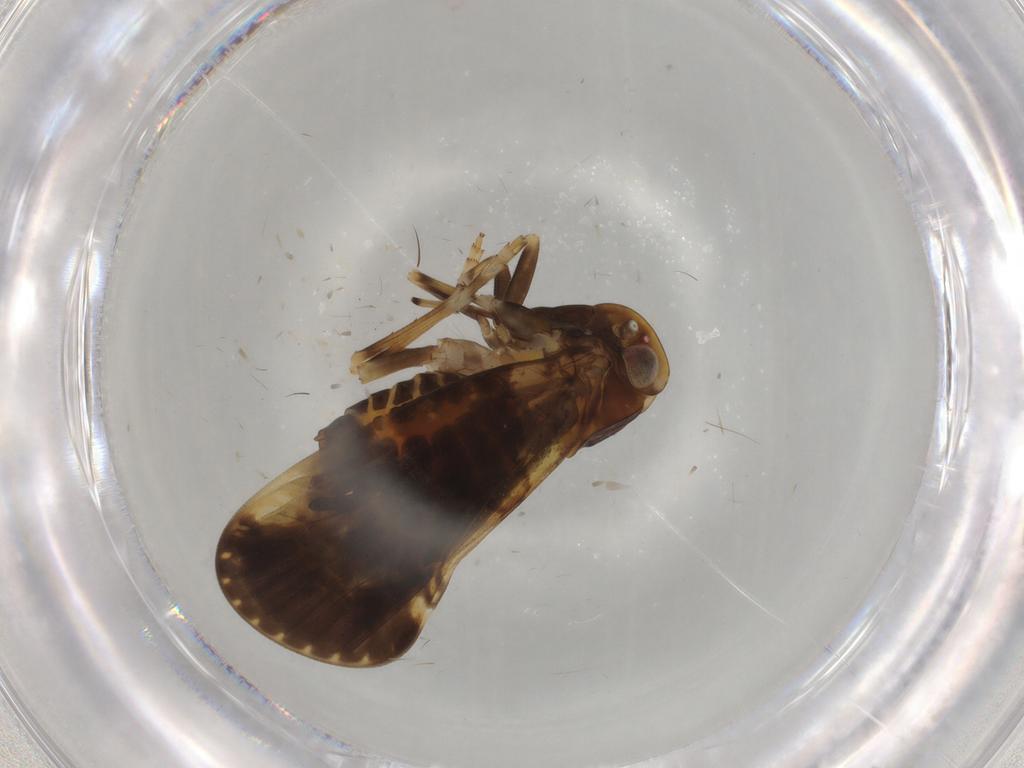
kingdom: Animalia
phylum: Arthropoda
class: Insecta
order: Hemiptera
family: Cixiidae
